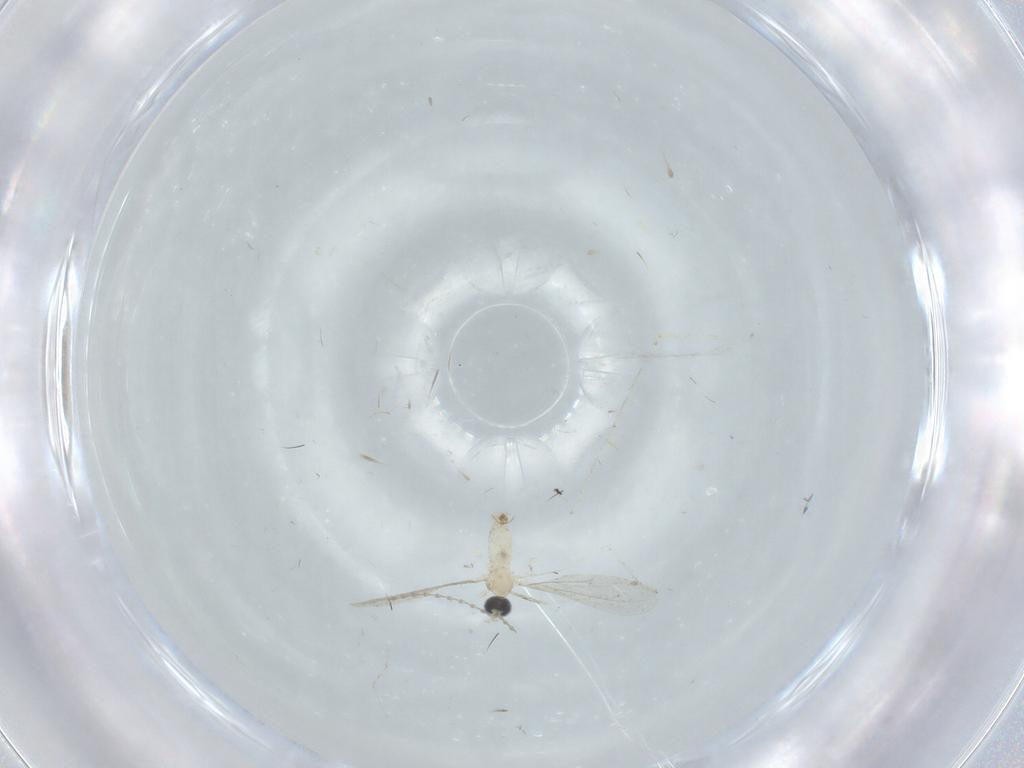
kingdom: Animalia
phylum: Arthropoda
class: Insecta
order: Diptera
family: Cecidomyiidae
